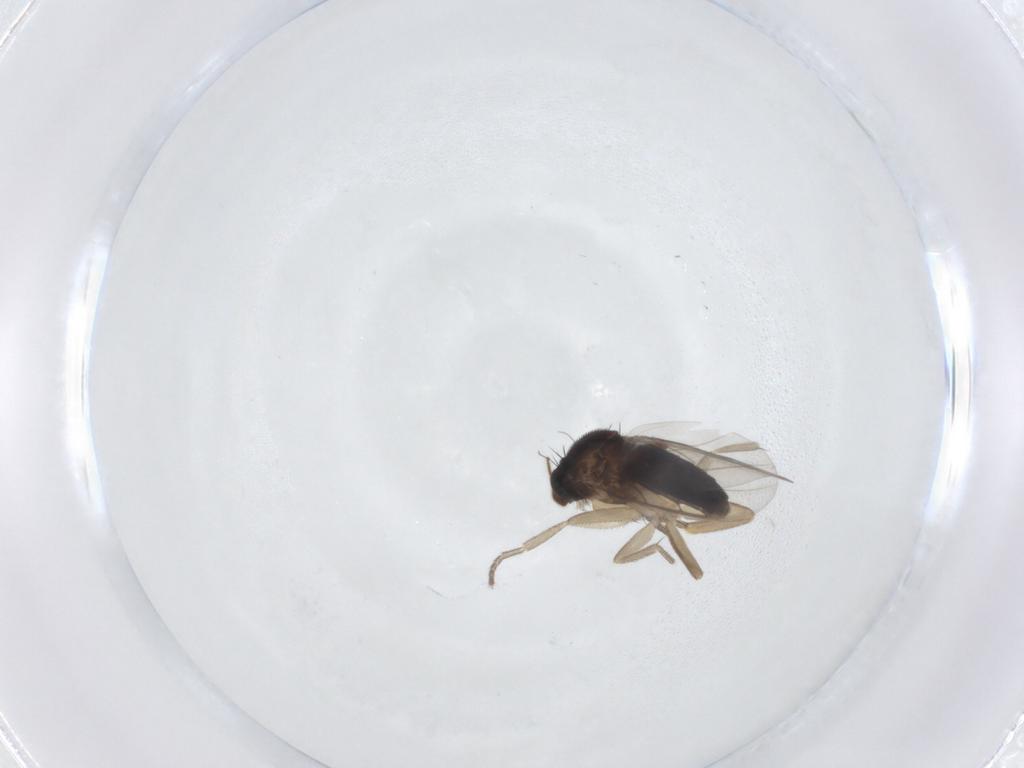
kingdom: Animalia
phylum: Arthropoda
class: Insecta
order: Diptera
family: Phoridae
